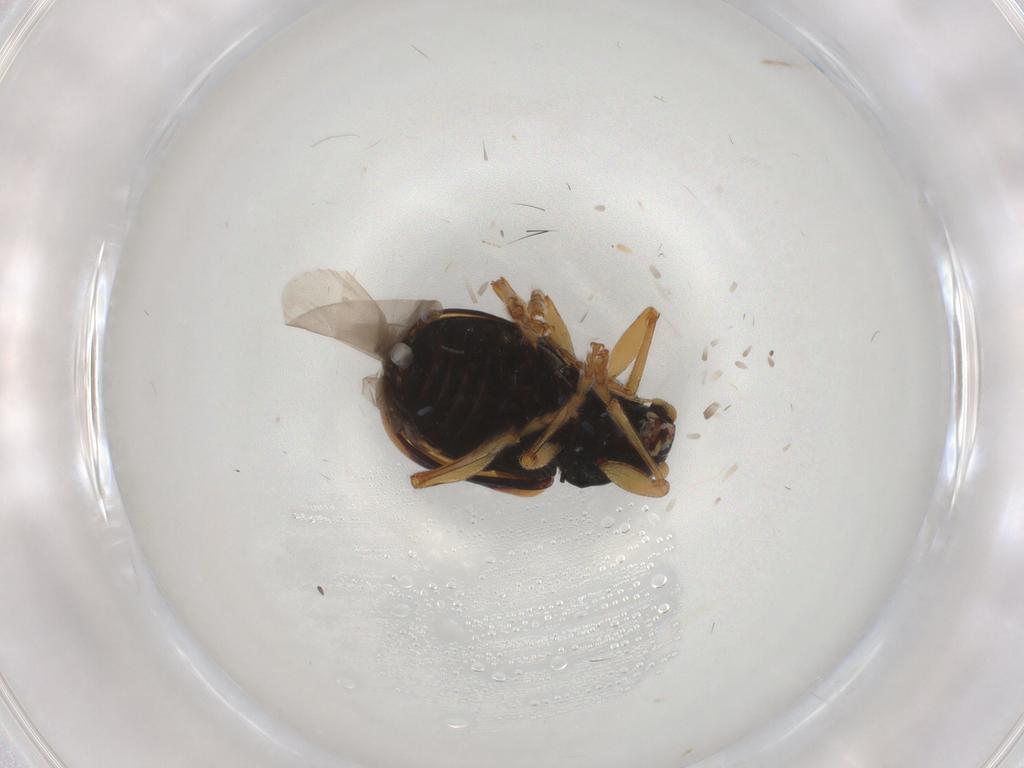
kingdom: Animalia
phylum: Arthropoda
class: Insecta
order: Coleoptera
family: Chrysomelidae
